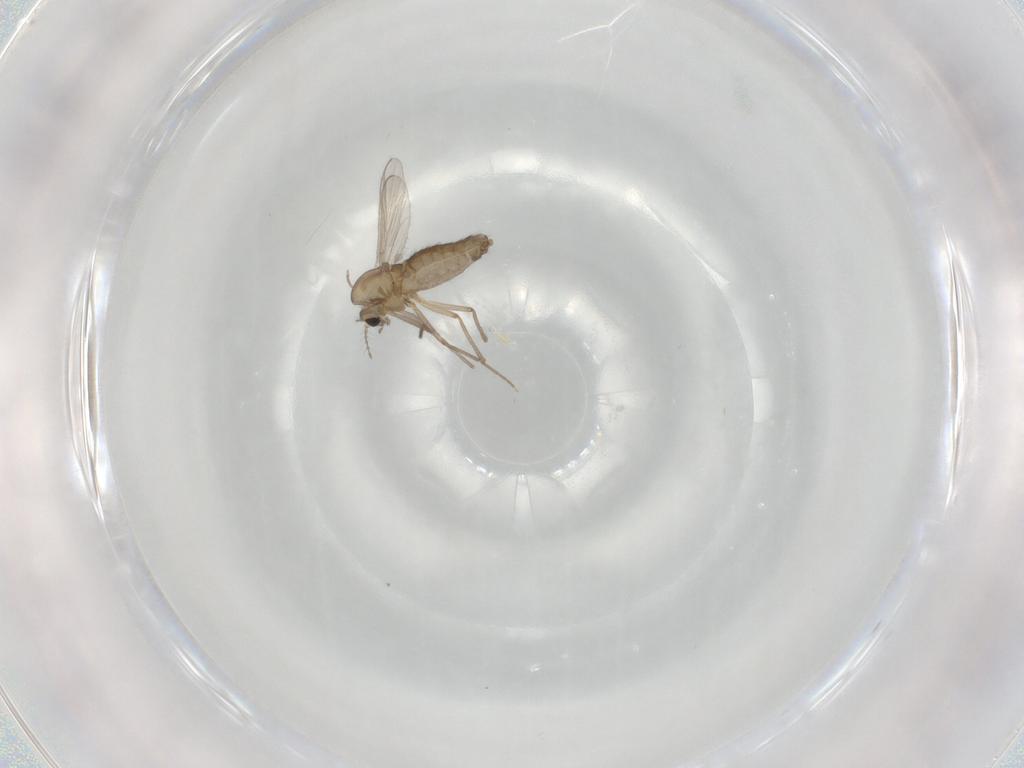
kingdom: Animalia
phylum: Arthropoda
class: Insecta
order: Diptera
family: Chironomidae
